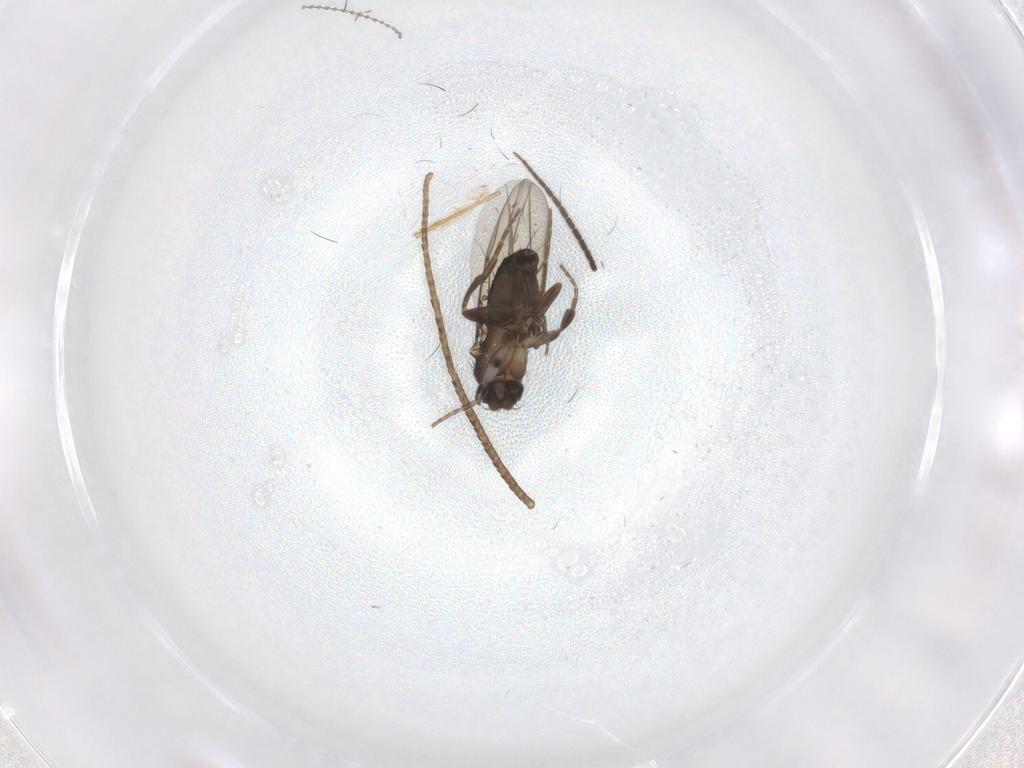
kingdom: Animalia
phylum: Arthropoda
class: Insecta
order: Diptera
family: Phoridae
